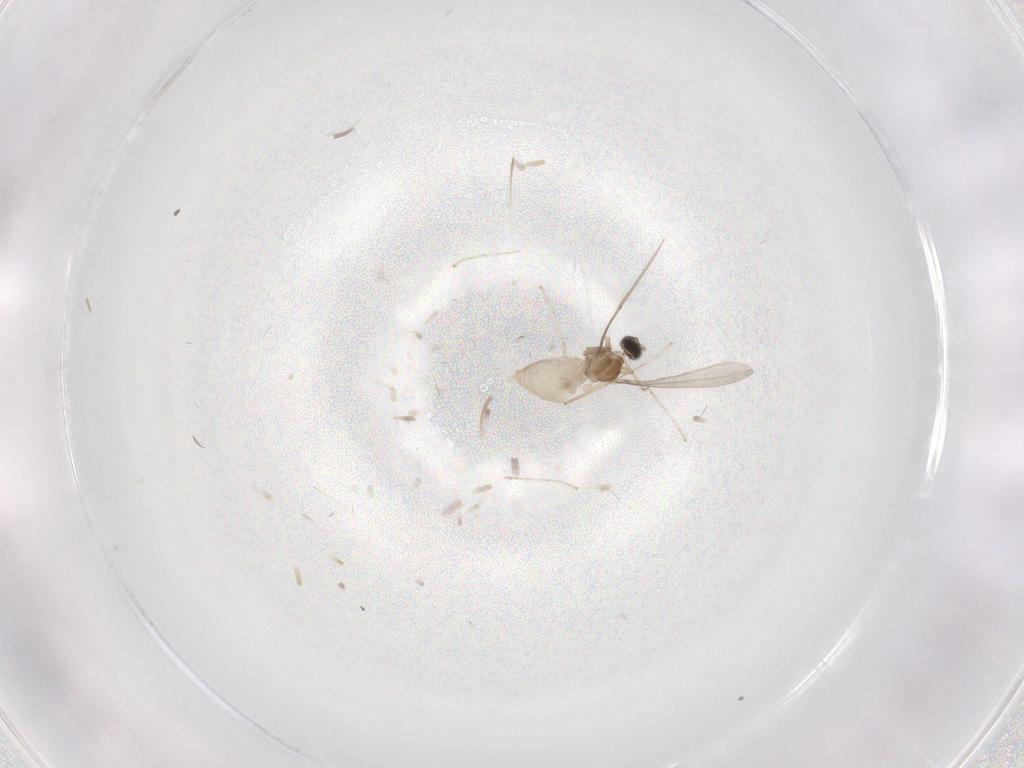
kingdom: Animalia
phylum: Arthropoda
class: Insecta
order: Diptera
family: Cecidomyiidae
